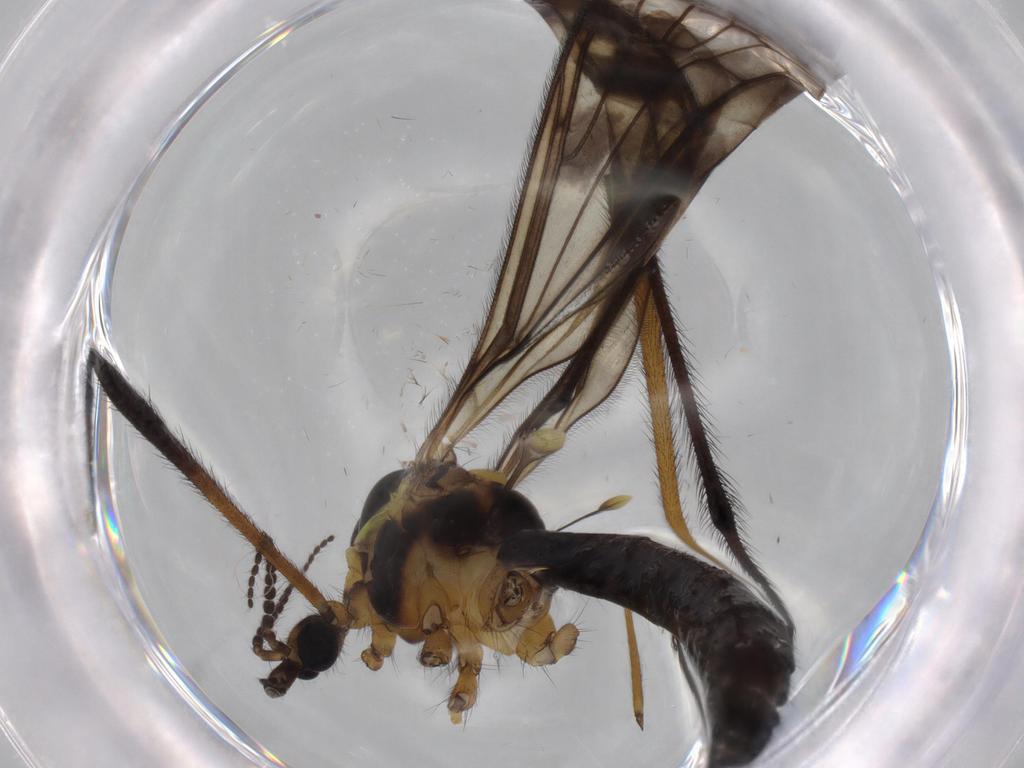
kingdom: Animalia
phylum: Arthropoda
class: Insecta
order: Diptera
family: Limoniidae
